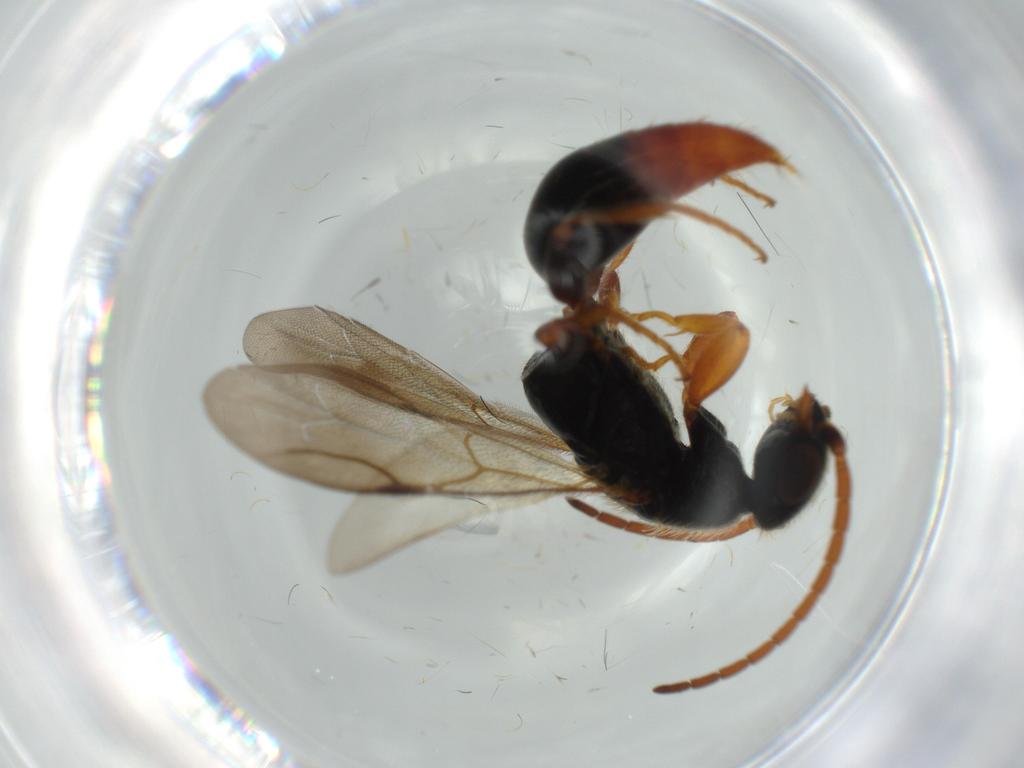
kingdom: Animalia
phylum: Arthropoda
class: Insecta
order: Hymenoptera
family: Bethylidae
